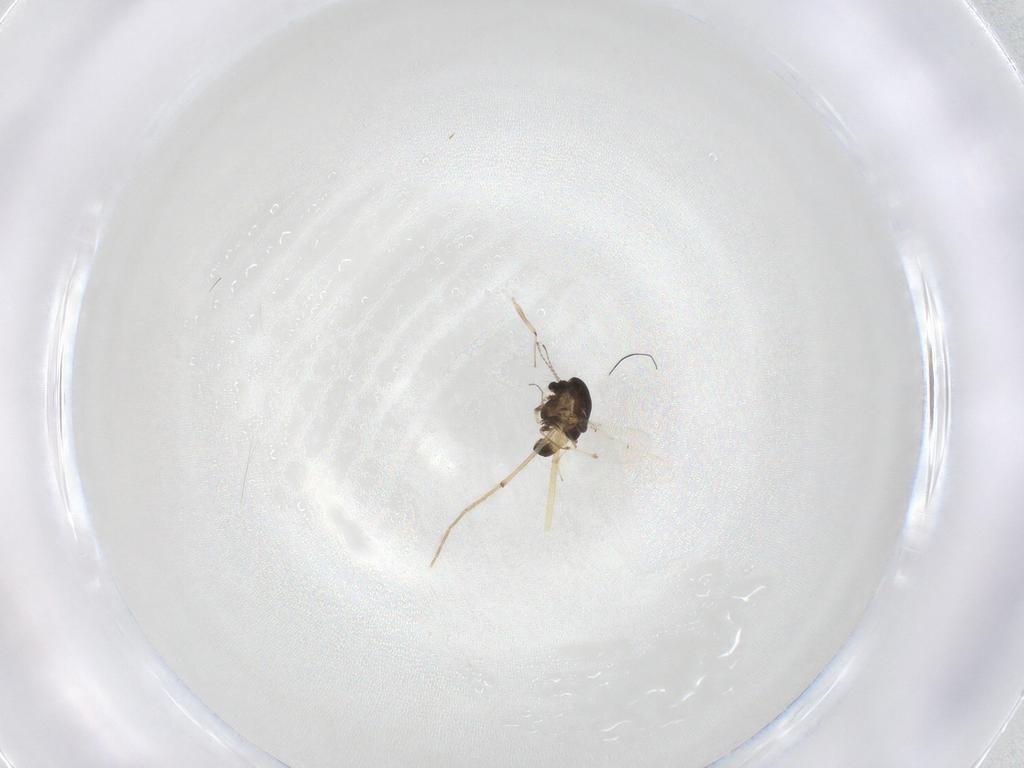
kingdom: Animalia
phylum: Arthropoda
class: Insecta
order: Diptera
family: Chironomidae
